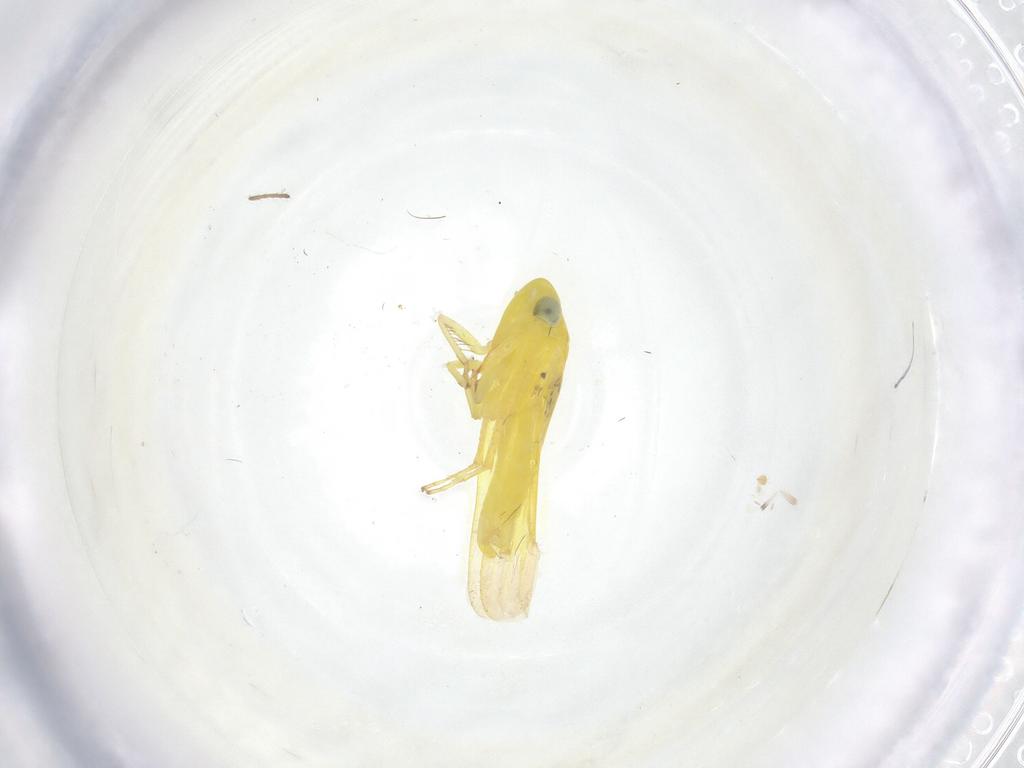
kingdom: Animalia
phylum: Arthropoda
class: Insecta
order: Hemiptera
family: Cicadellidae
